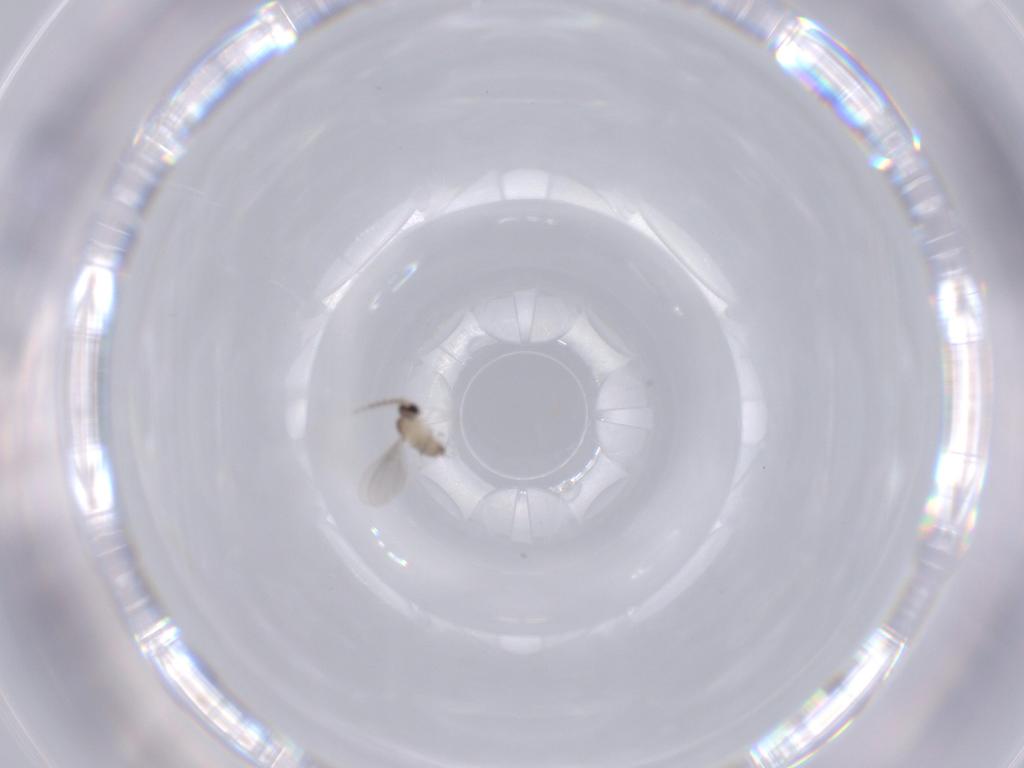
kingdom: Animalia
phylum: Arthropoda
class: Insecta
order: Diptera
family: Cecidomyiidae
